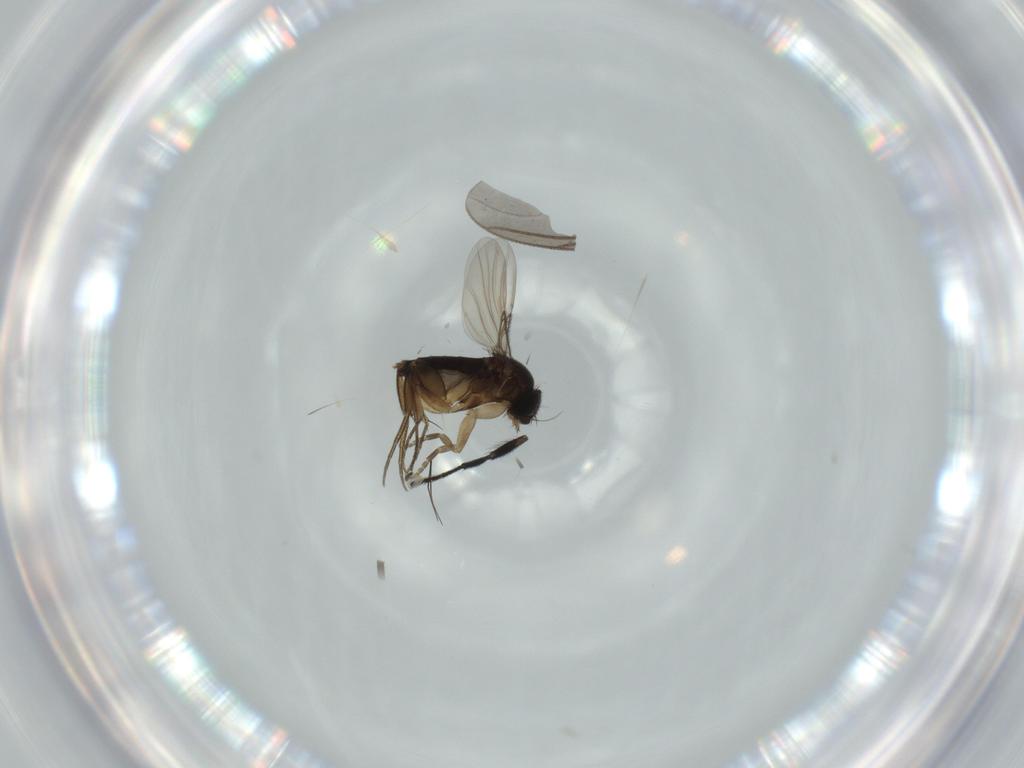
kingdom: Animalia
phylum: Arthropoda
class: Insecta
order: Diptera
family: Phoridae
